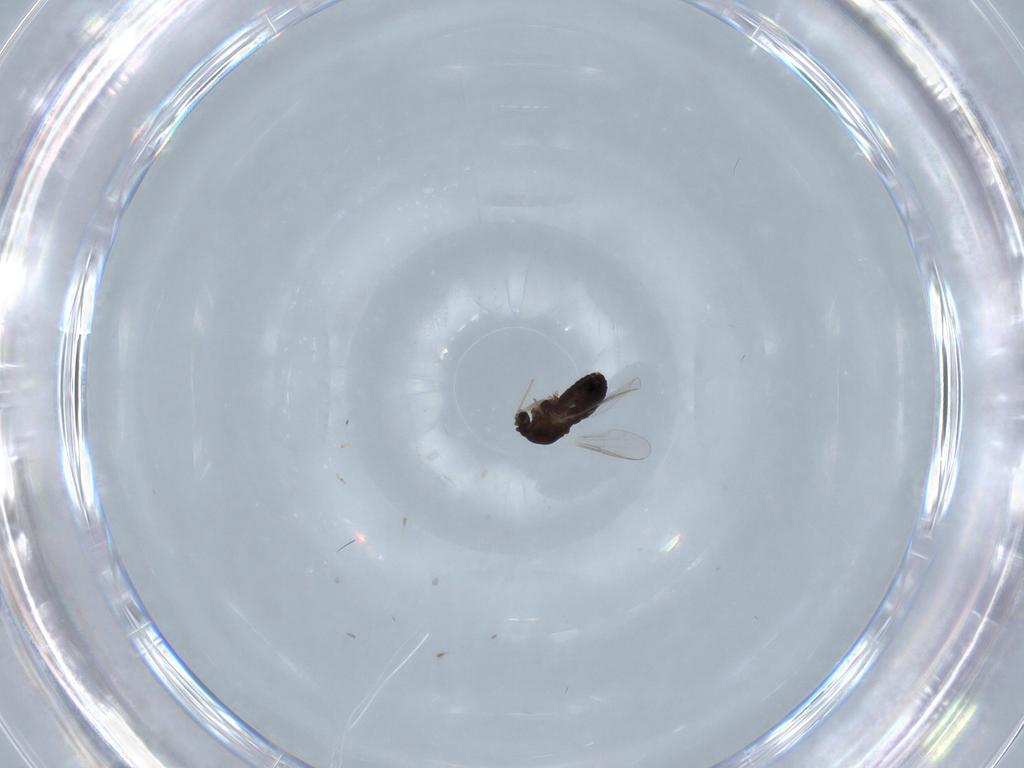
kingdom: Animalia
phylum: Arthropoda
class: Insecta
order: Diptera
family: Chironomidae
